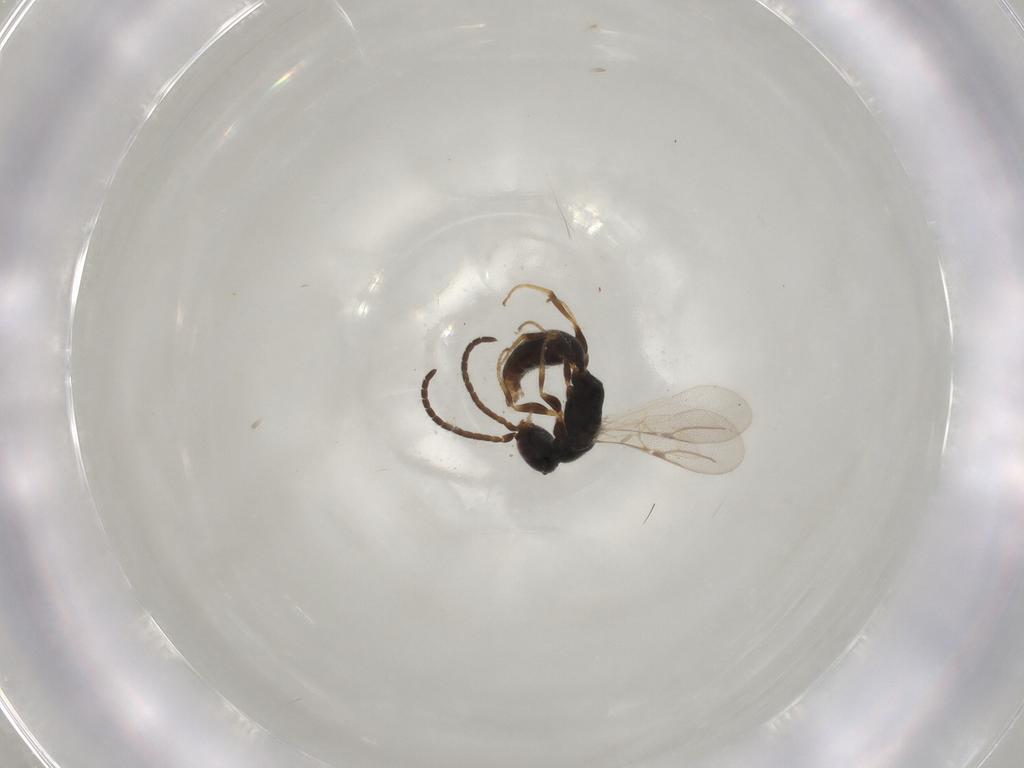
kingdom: Animalia
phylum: Arthropoda
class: Insecta
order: Hymenoptera
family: Bethylidae
